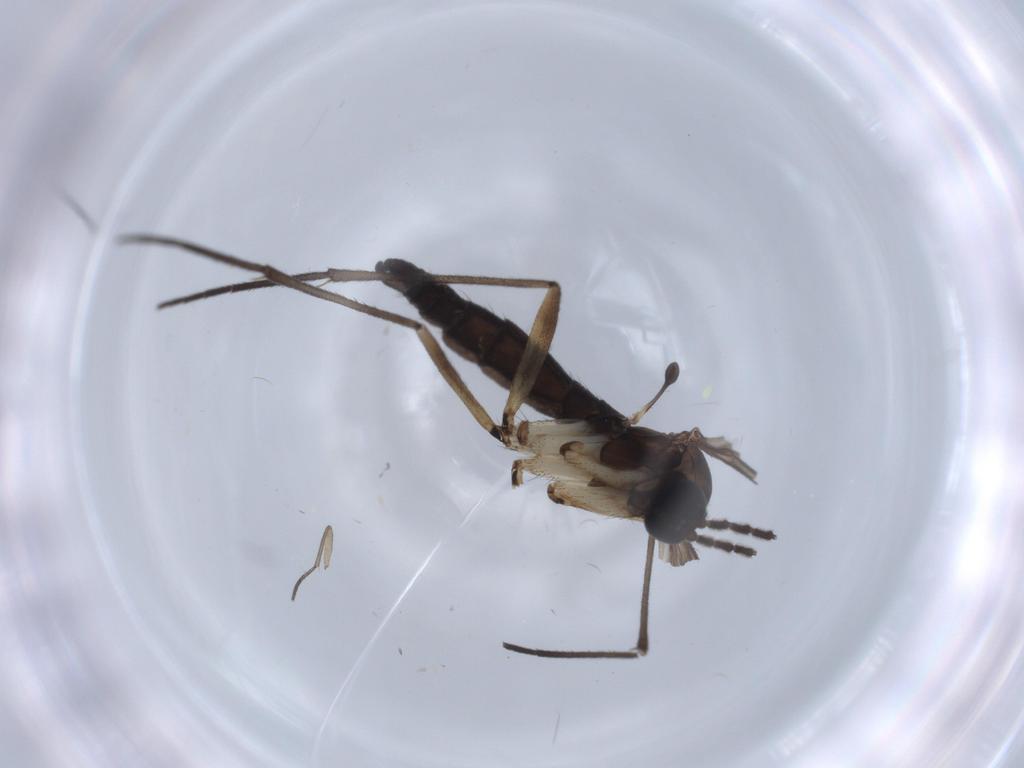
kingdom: Animalia
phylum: Arthropoda
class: Insecta
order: Diptera
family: Sciaridae
